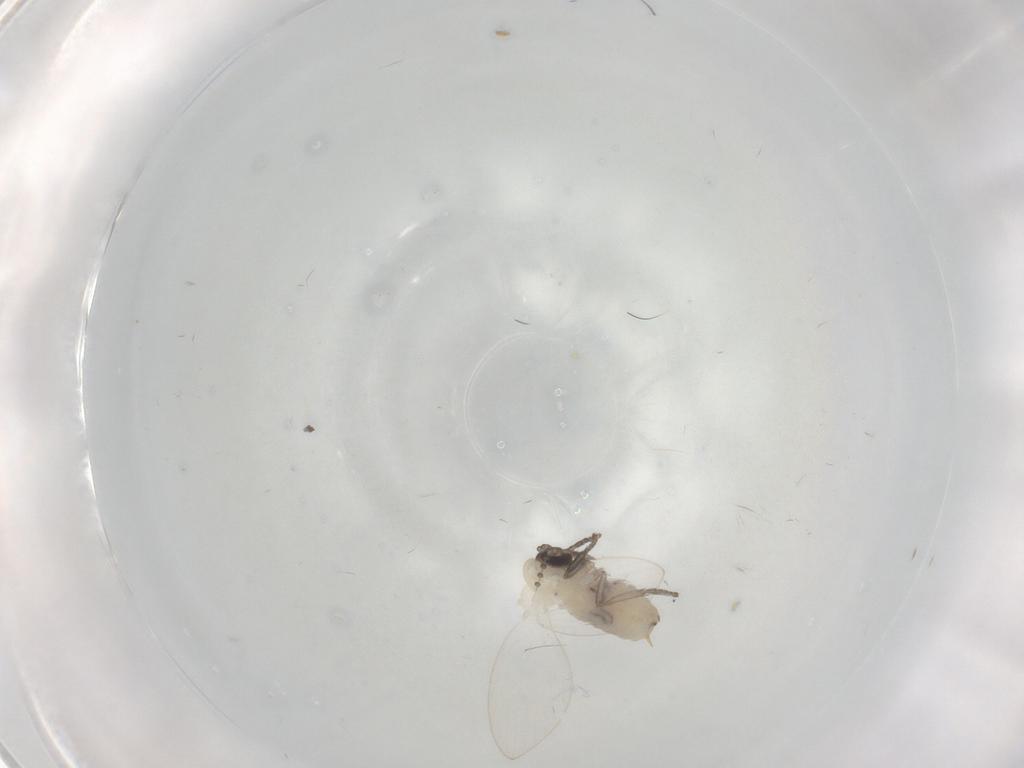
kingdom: Animalia
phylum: Arthropoda
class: Insecta
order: Diptera
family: Psychodidae
